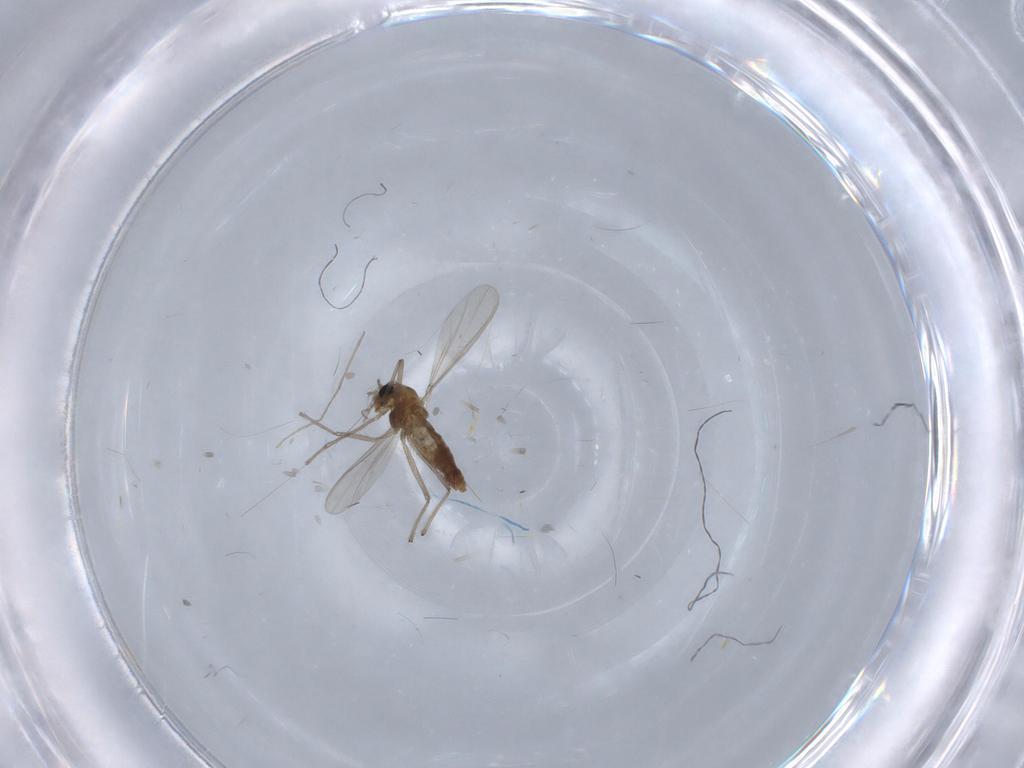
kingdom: Animalia
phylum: Arthropoda
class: Insecta
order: Diptera
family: Chironomidae
